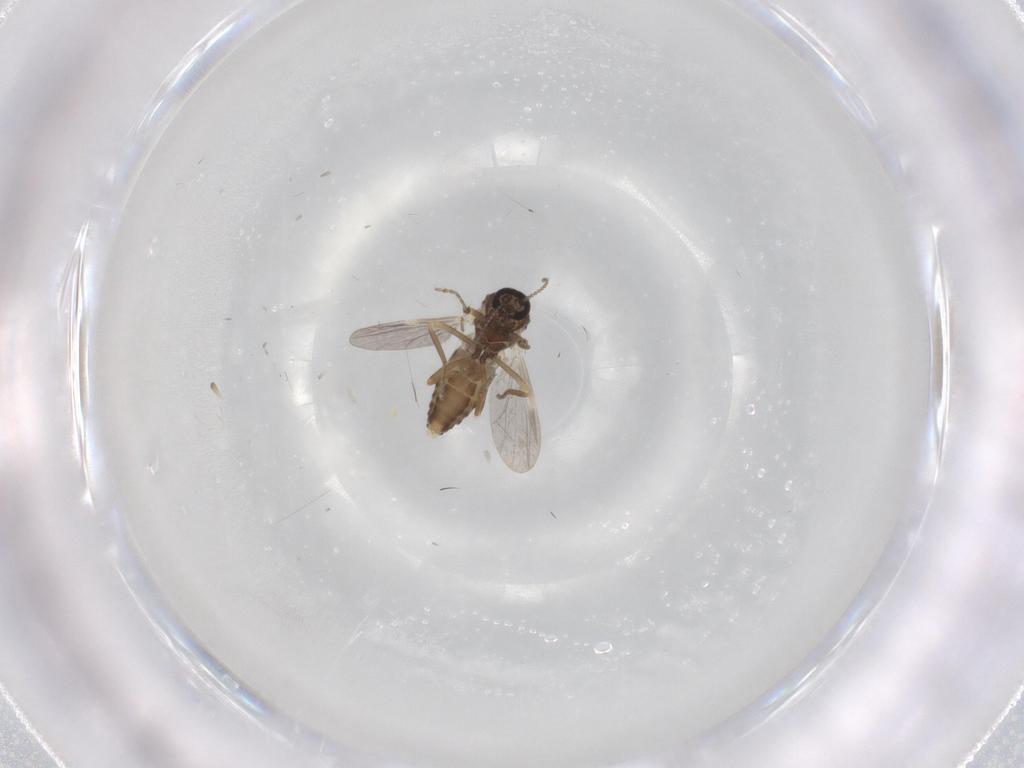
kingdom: Animalia
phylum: Arthropoda
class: Insecta
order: Diptera
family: Ceratopogonidae
